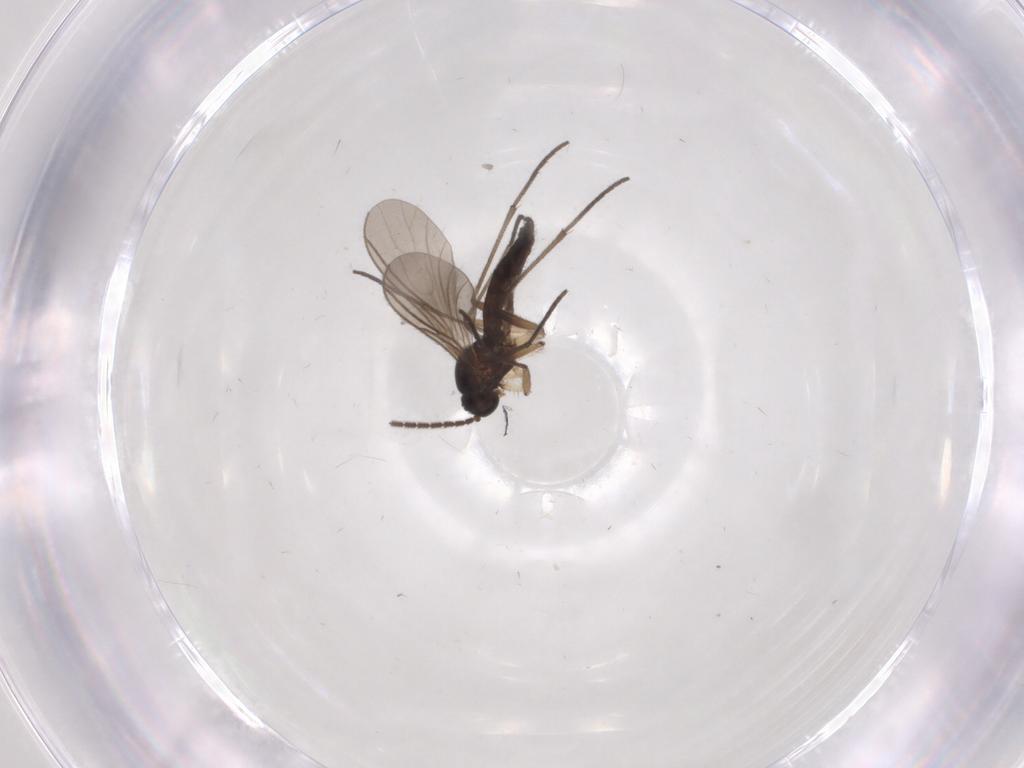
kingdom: Animalia
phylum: Arthropoda
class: Insecta
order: Diptera
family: Sciaridae
